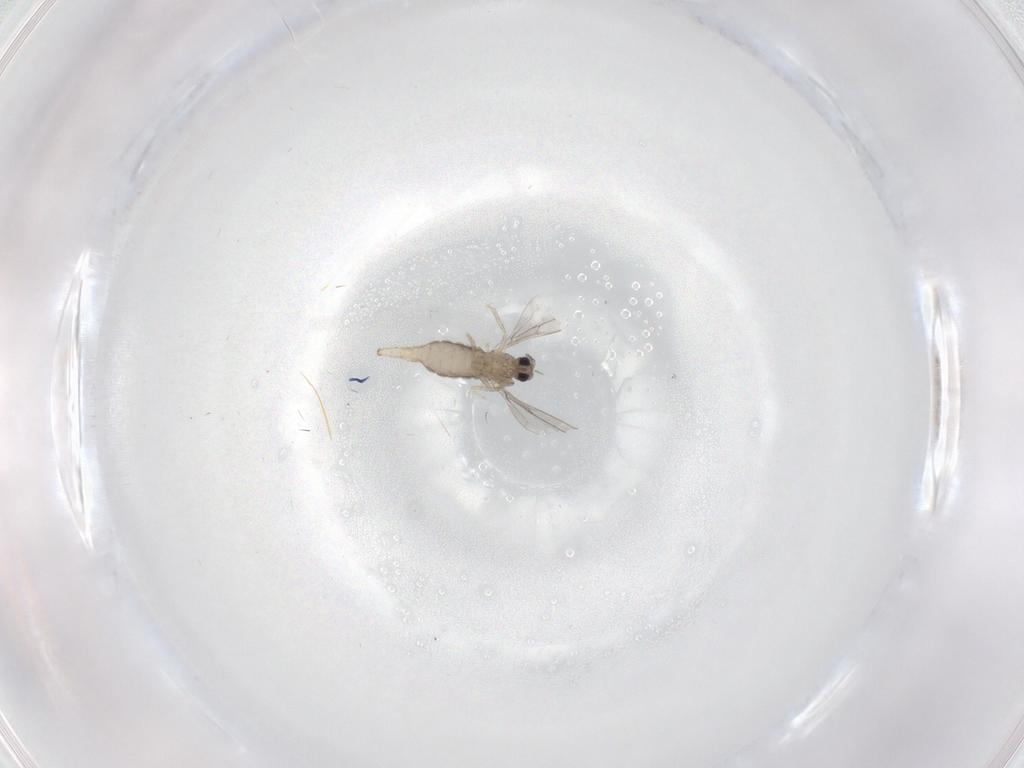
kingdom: Animalia
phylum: Arthropoda
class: Insecta
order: Diptera
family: Cecidomyiidae
